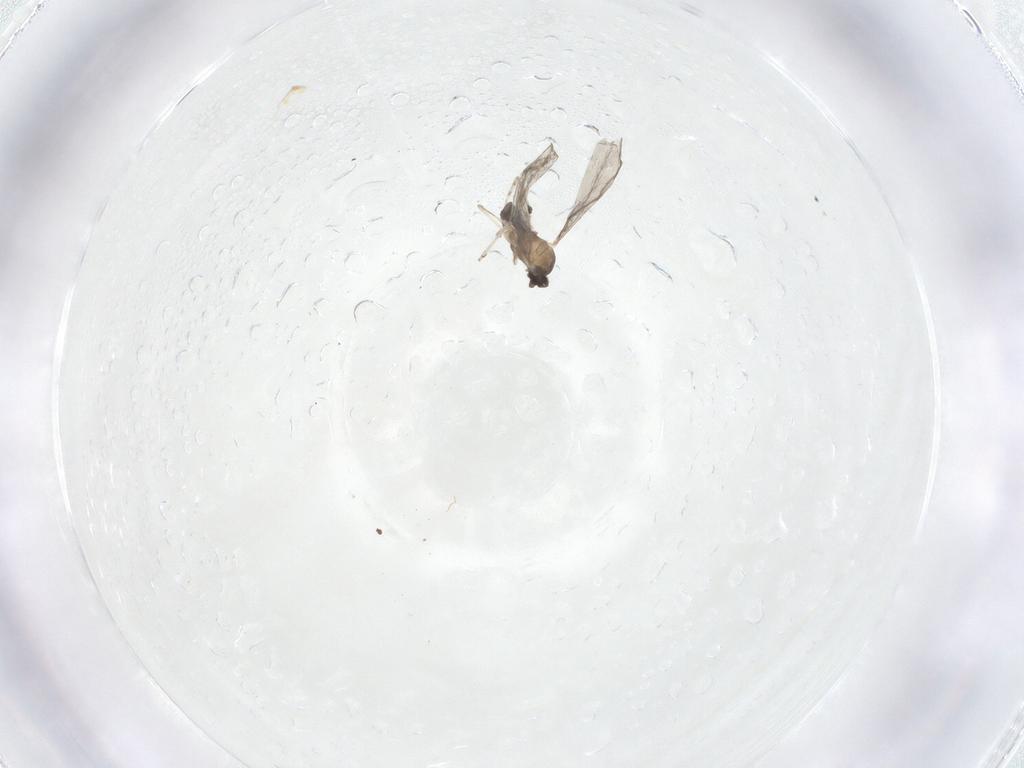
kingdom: Animalia
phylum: Arthropoda
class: Insecta
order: Diptera
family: Cecidomyiidae
